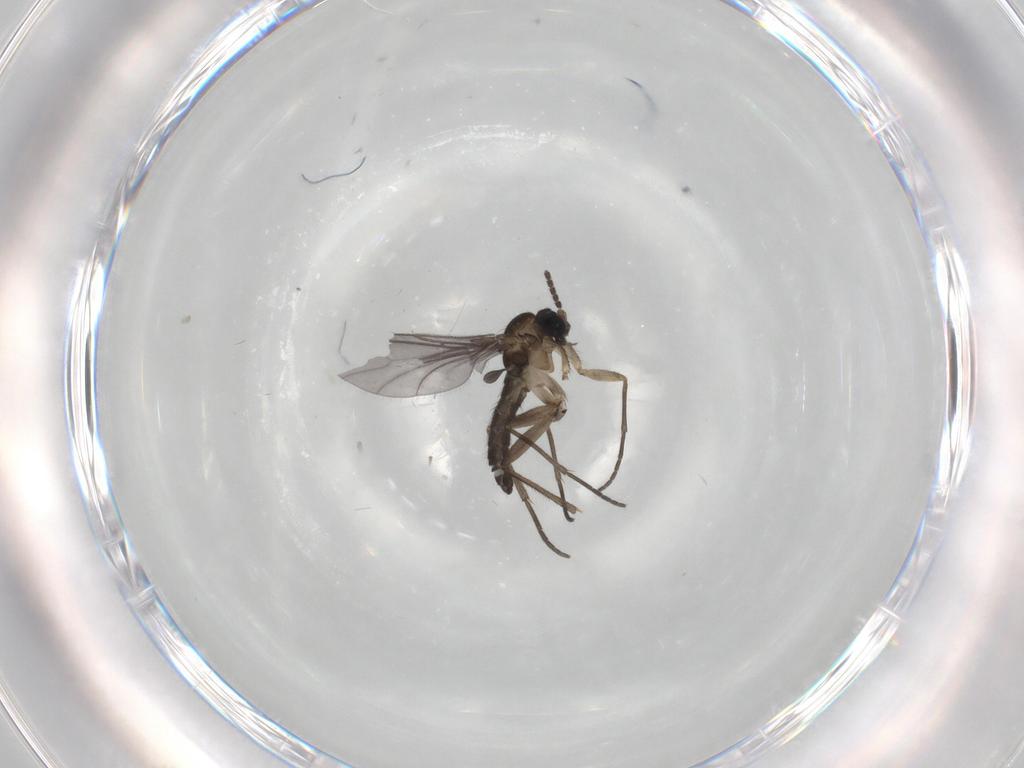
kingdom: Animalia
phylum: Arthropoda
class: Insecta
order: Diptera
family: Sciaridae
